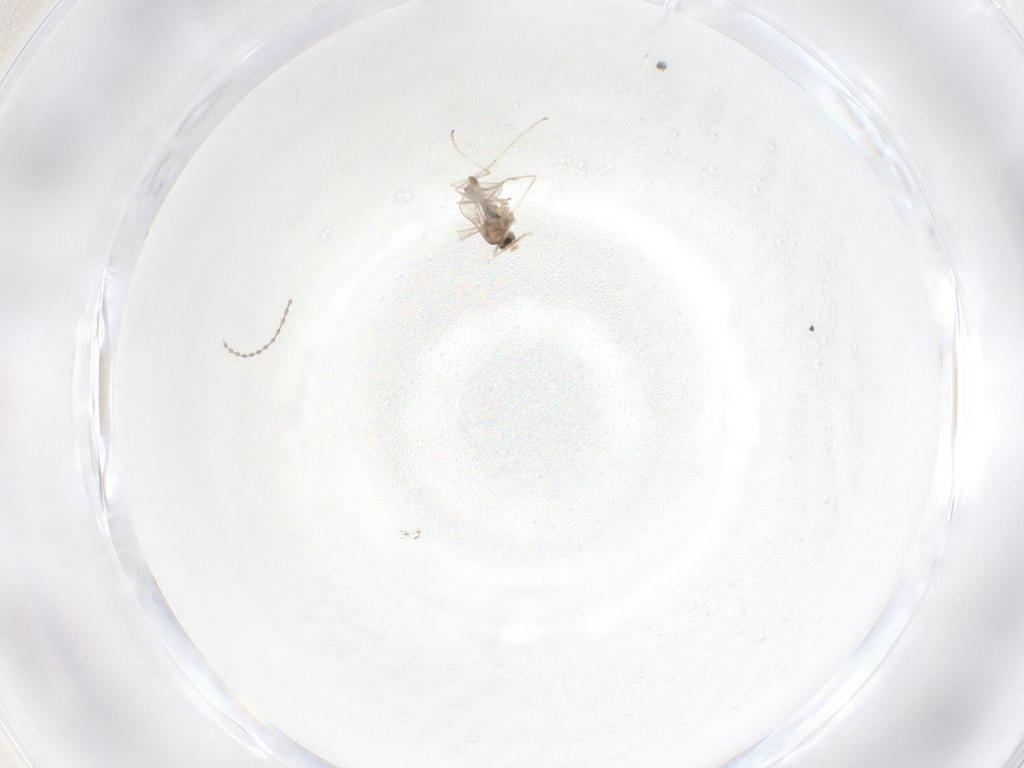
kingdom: Animalia
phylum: Arthropoda
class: Insecta
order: Diptera
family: Cecidomyiidae
